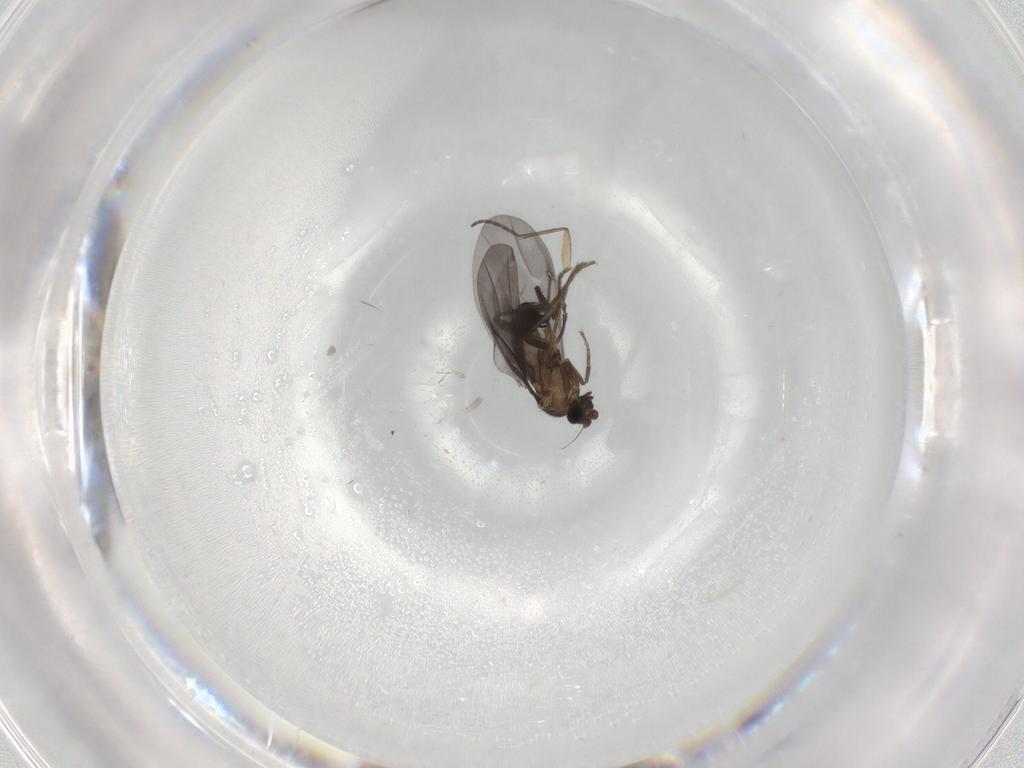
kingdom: Animalia
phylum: Arthropoda
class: Insecta
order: Diptera
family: Phoridae
